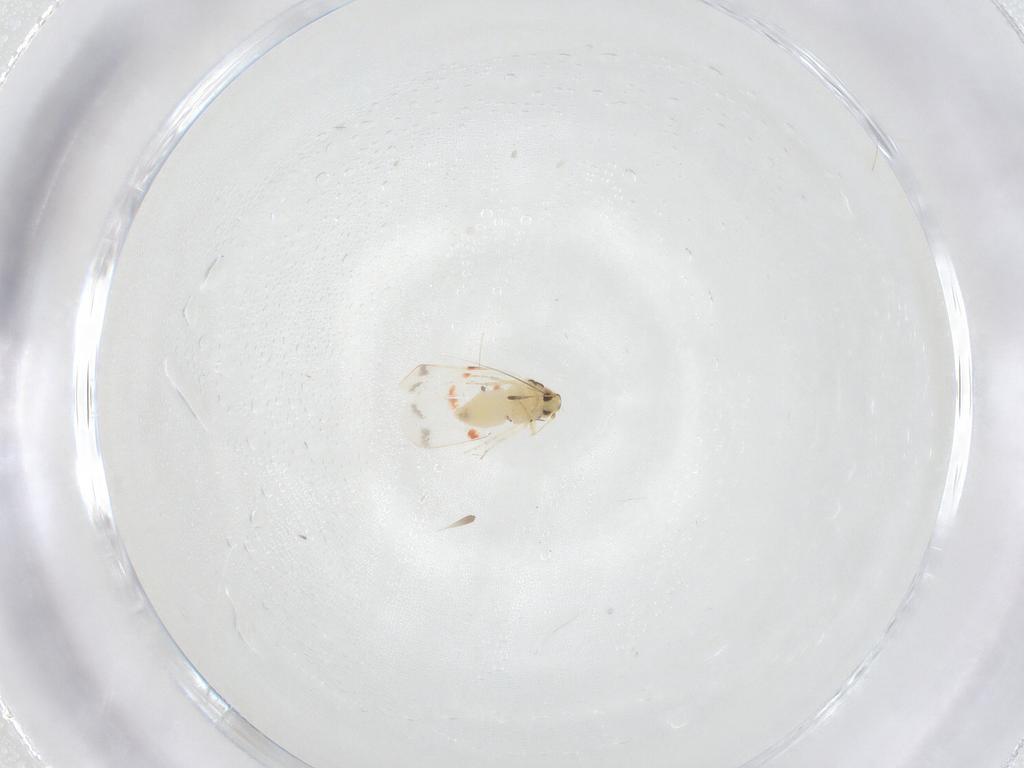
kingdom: Animalia
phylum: Arthropoda
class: Insecta
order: Hemiptera
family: Aleyrodidae
